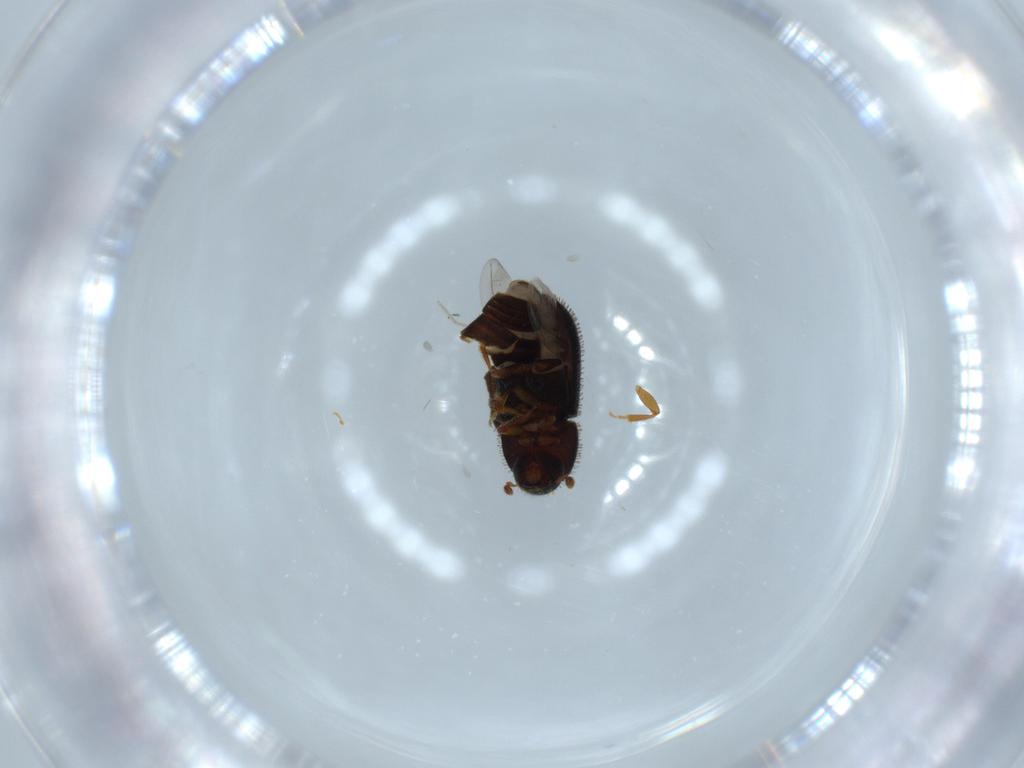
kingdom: Animalia
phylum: Arthropoda
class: Insecta
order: Coleoptera
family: Curculionidae
